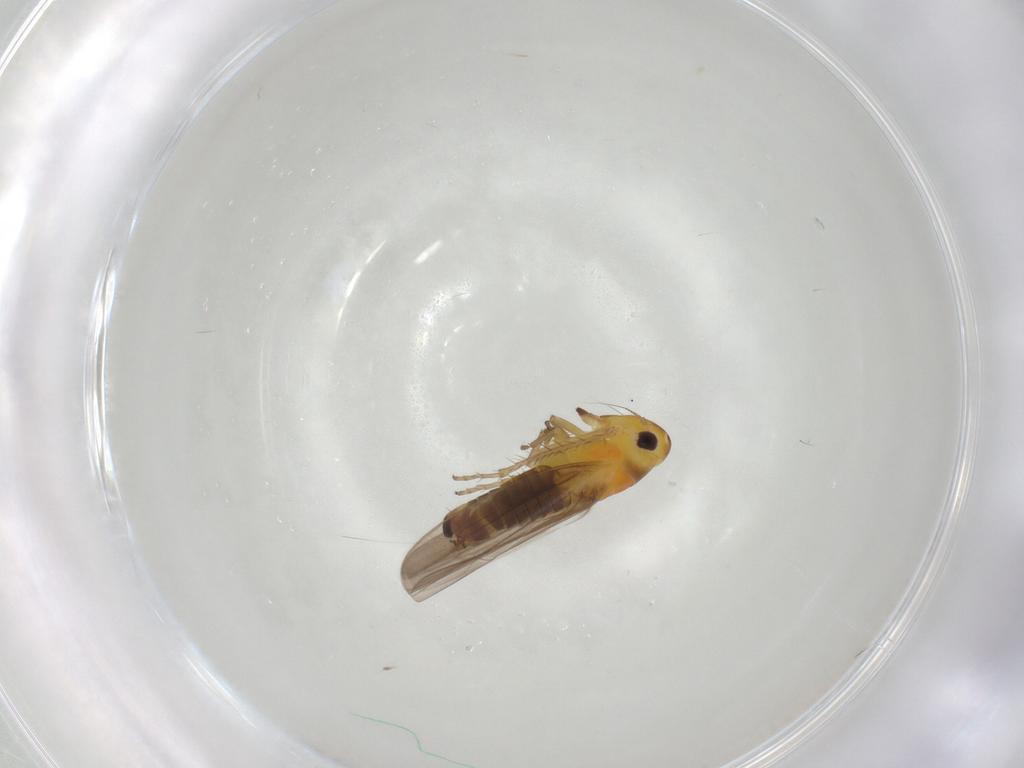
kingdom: Animalia
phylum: Arthropoda
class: Insecta
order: Hemiptera
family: Cicadellidae
